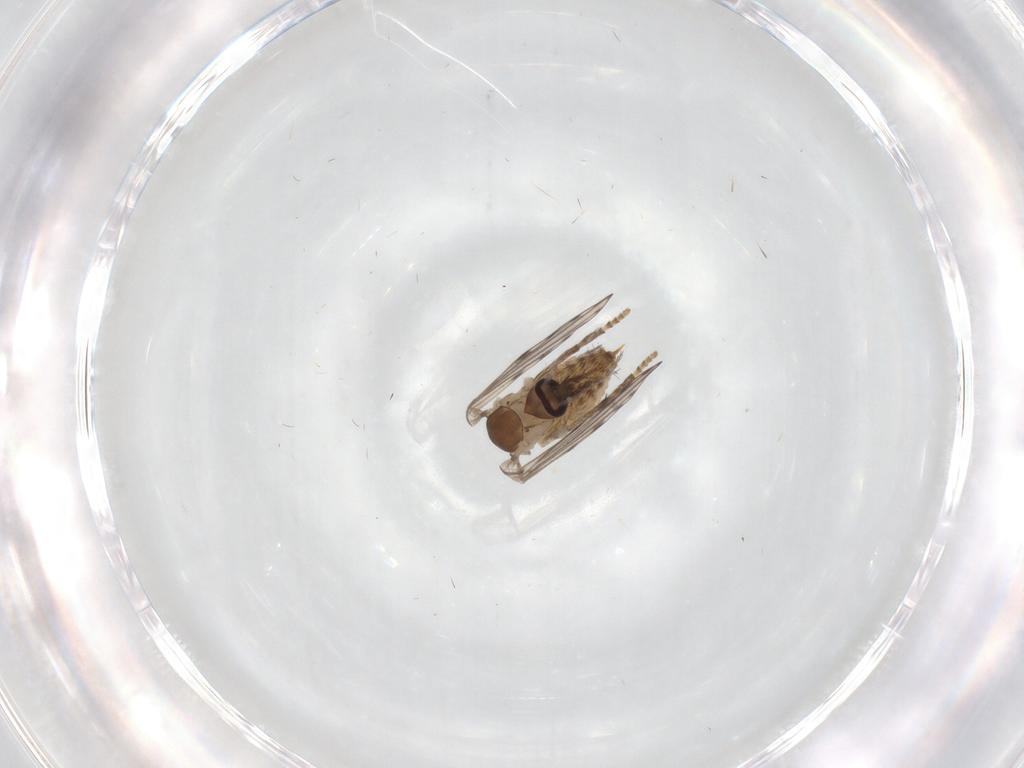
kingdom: Animalia
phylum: Arthropoda
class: Insecta
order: Diptera
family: Psychodidae
